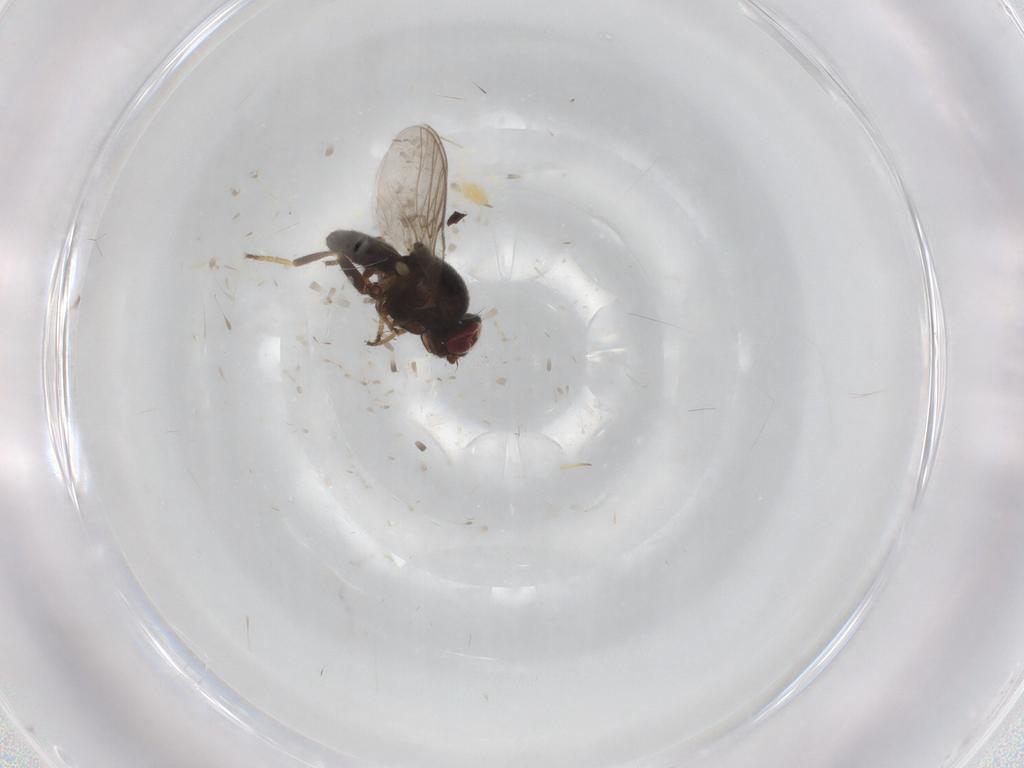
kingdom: Animalia
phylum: Arthropoda
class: Insecta
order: Diptera
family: Chloropidae
